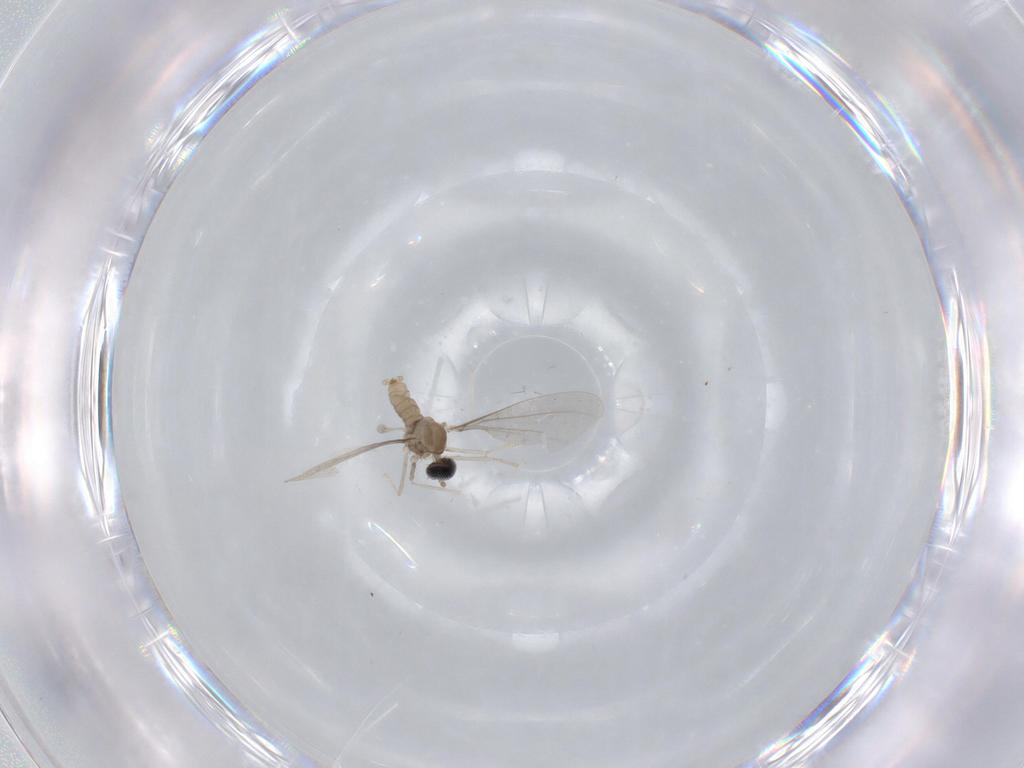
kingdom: Animalia
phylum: Arthropoda
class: Insecta
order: Diptera
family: Cecidomyiidae
